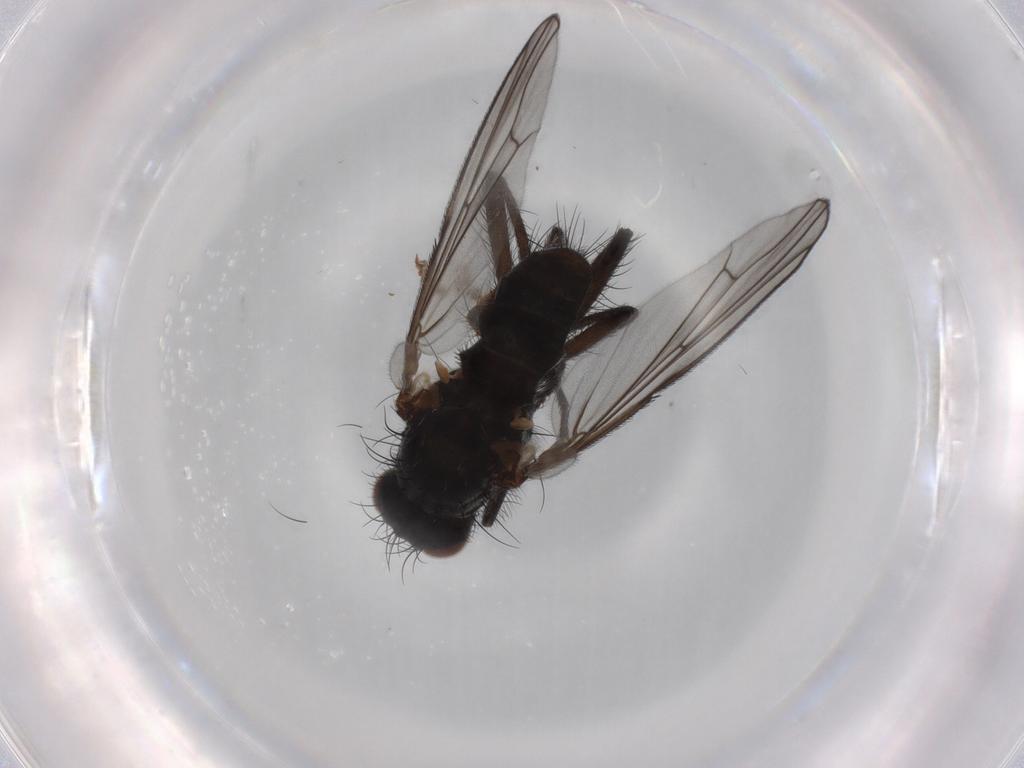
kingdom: Animalia
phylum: Arthropoda
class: Insecta
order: Diptera
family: Anthomyiidae
